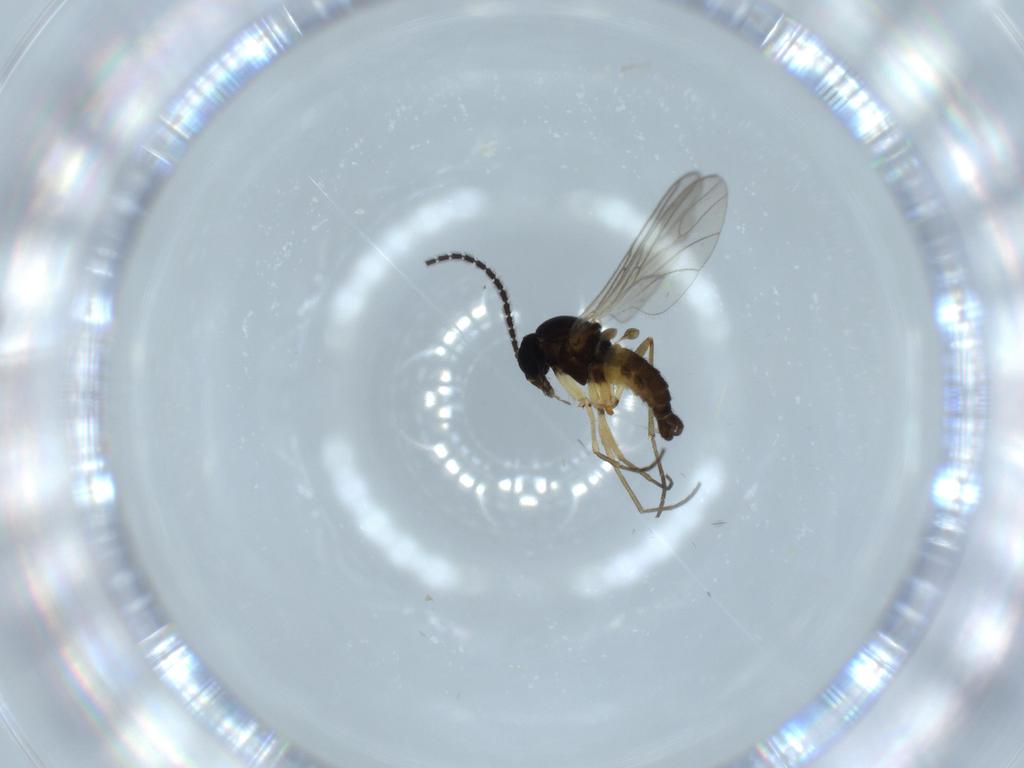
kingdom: Animalia
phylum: Arthropoda
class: Insecta
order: Diptera
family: Sciaridae
